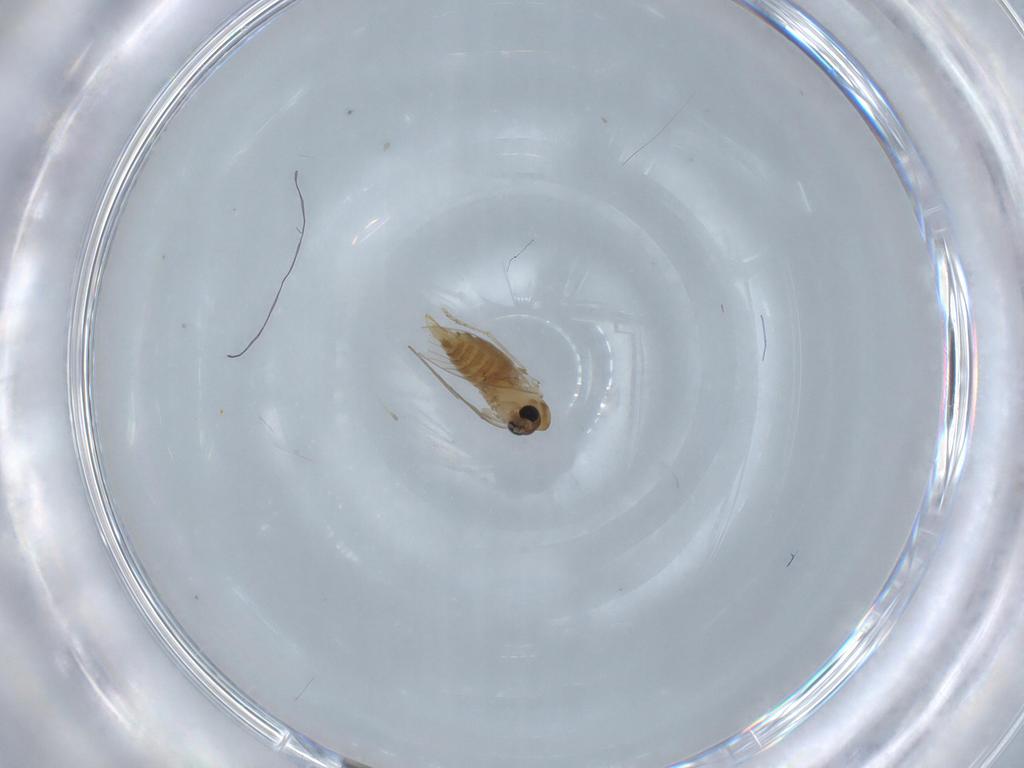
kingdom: Animalia
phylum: Arthropoda
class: Insecta
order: Diptera
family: Dolichopodidae
